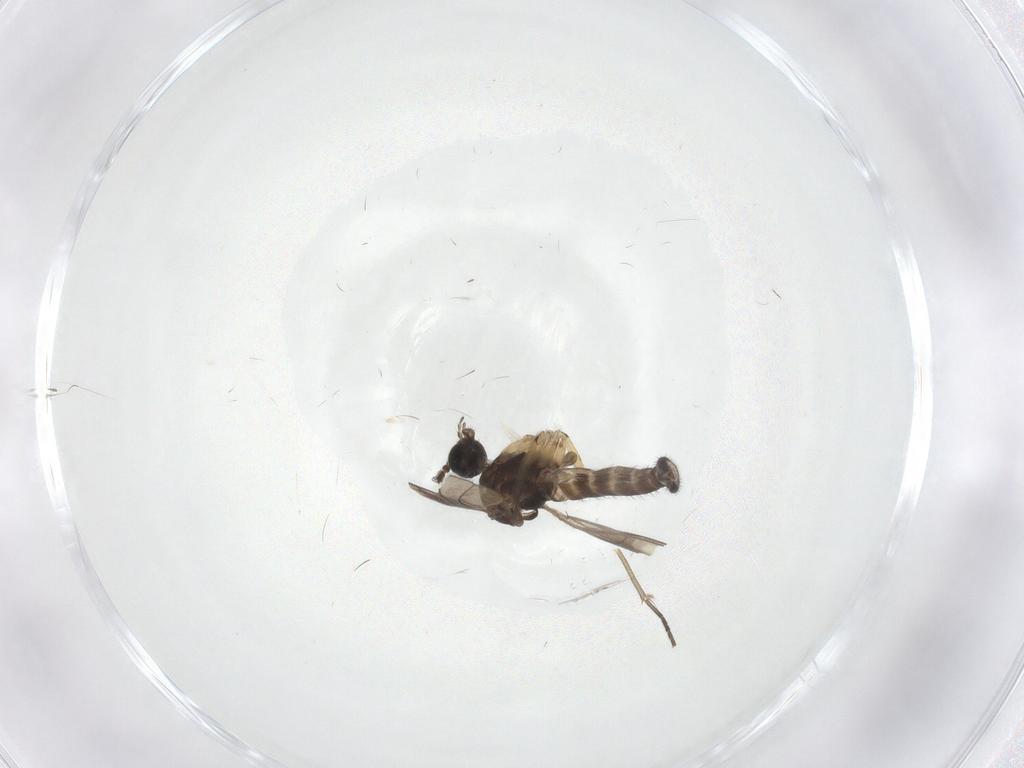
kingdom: Animalia
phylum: Arthropoda
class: Insecta
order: Diptera
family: Sciaridae
